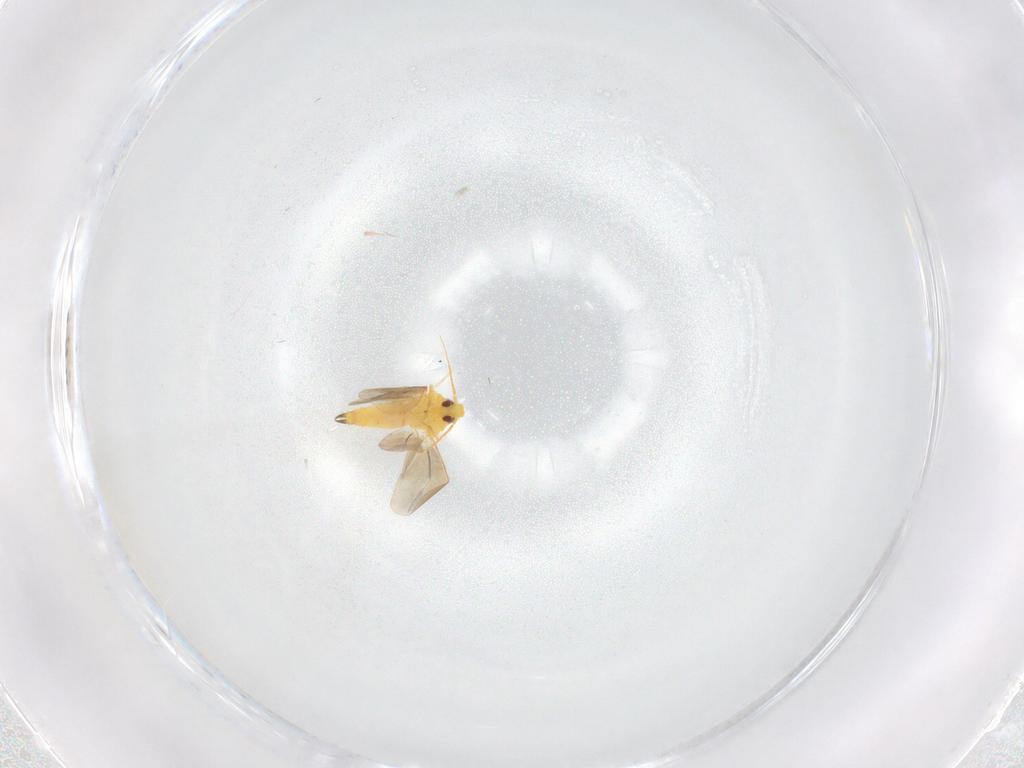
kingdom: Animalia
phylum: Arthropoda
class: Insecta
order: Hemiptera
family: Aleyrodidae
